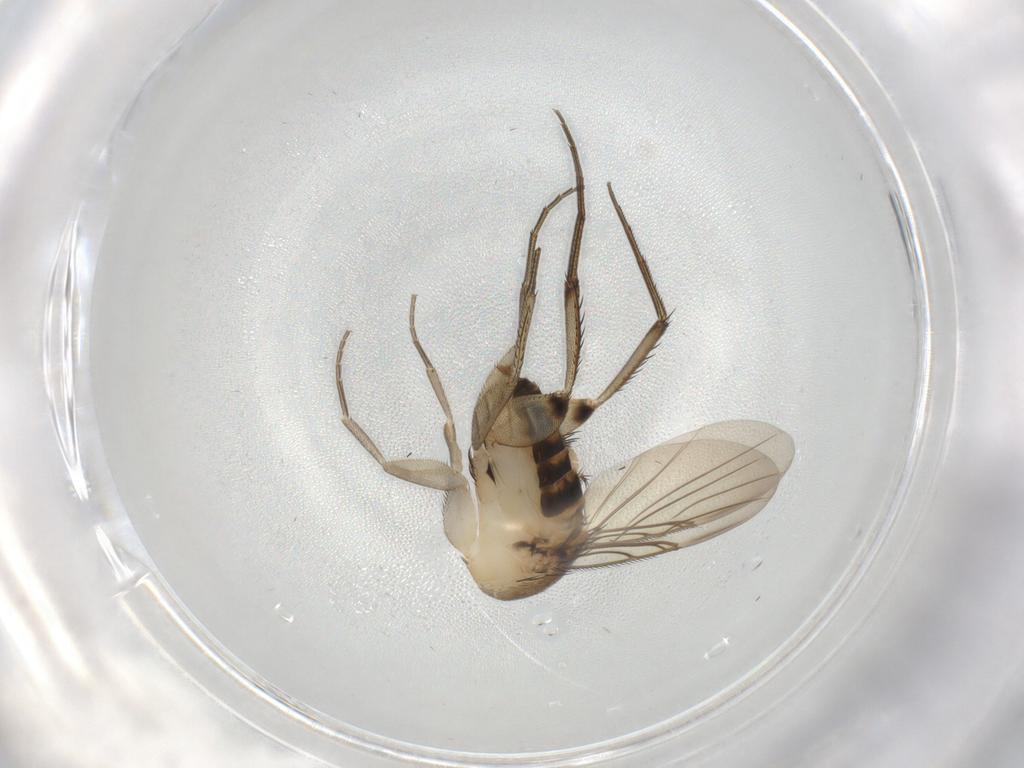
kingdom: Animalia
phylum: Arthropoda
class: Insecta
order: Diptera
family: Phoridae
